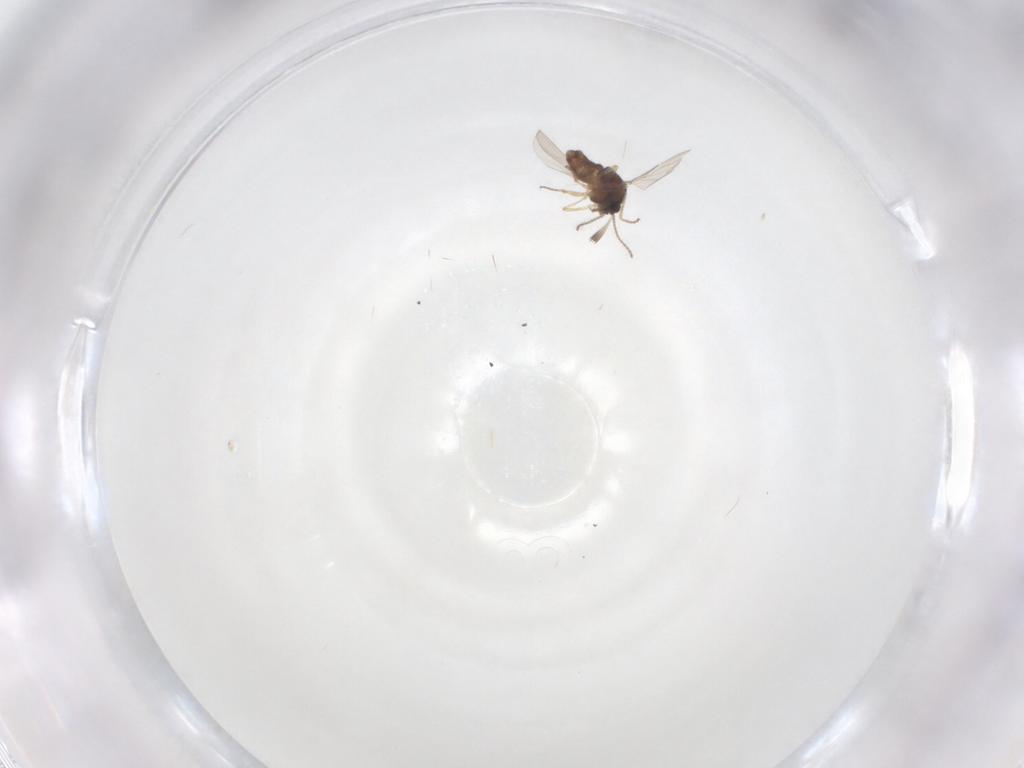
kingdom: Animalia
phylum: Arthropoda
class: Insecta
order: Diptera
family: Ceratopogonidae
